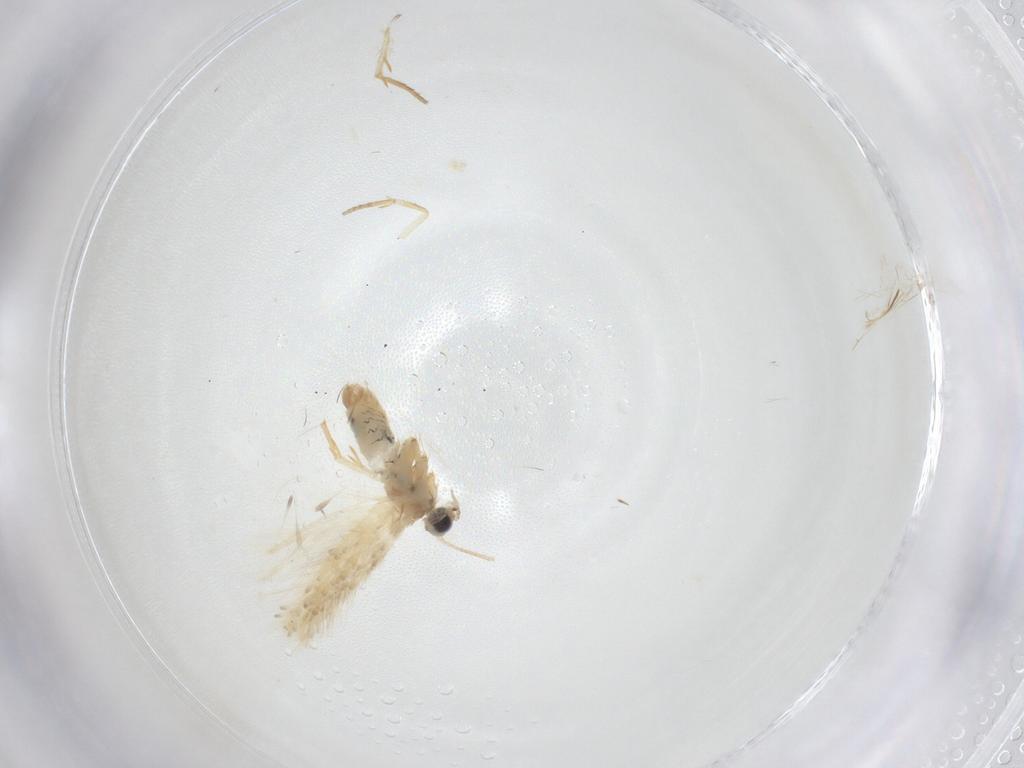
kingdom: Animalia
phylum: Arthropoda
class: Insecta
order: Lepidoptera
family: Nepticulidae
